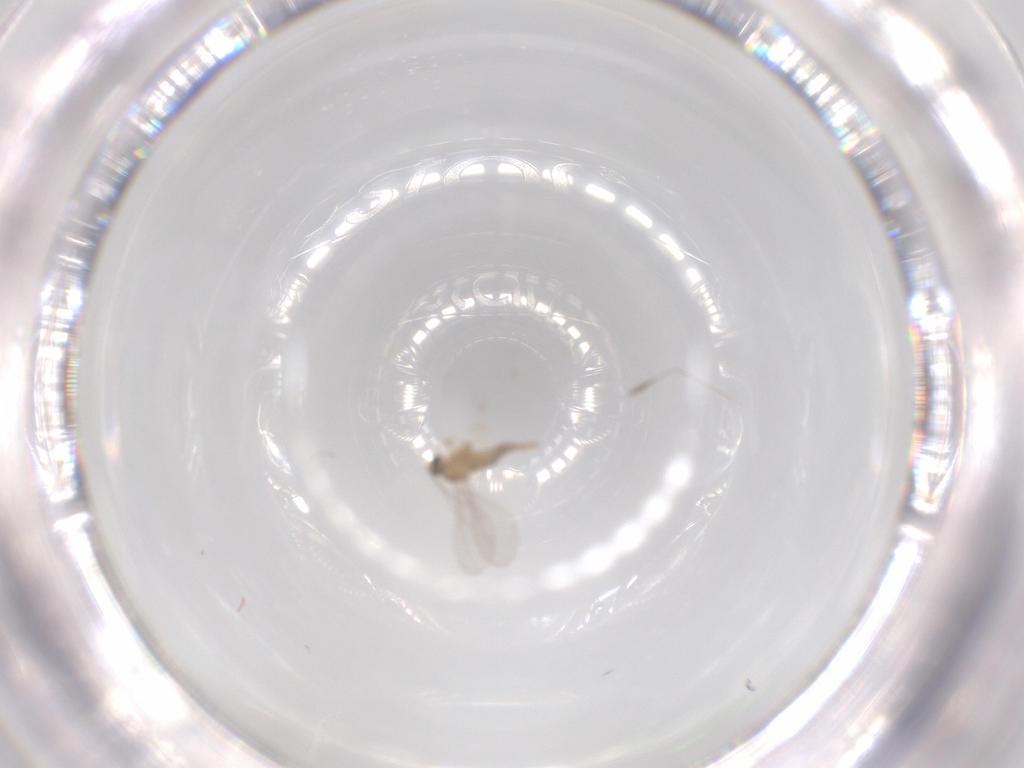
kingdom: Animalia
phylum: Arthropoda
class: Insecta
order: Diptera
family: Cecidomyiidae
